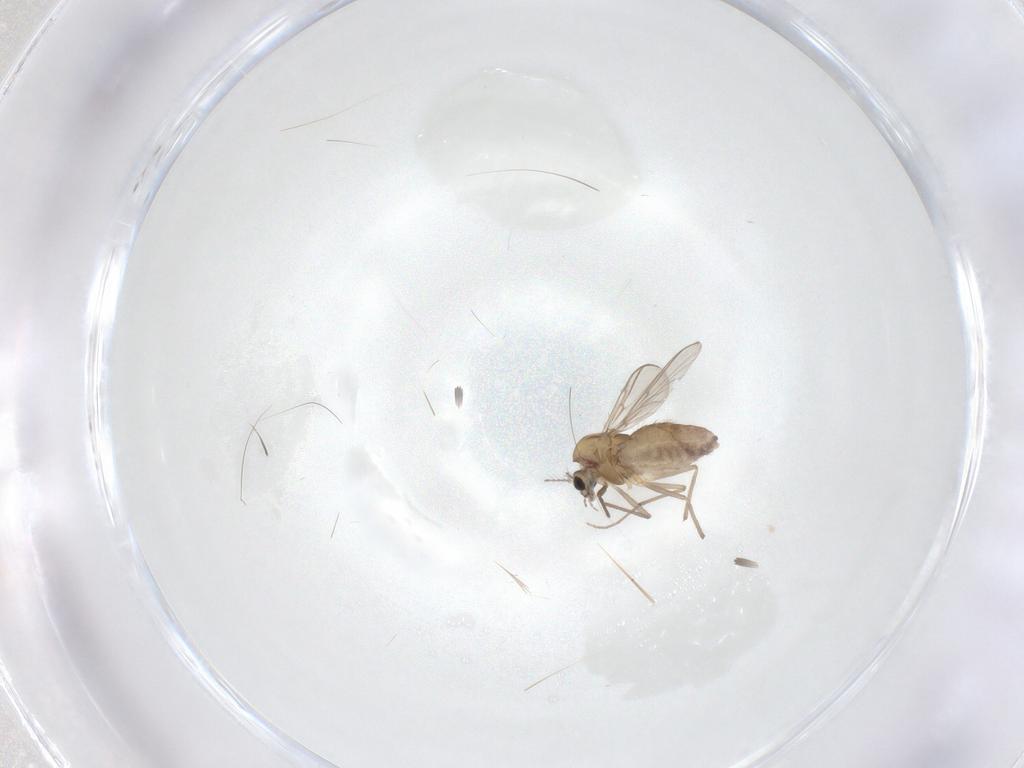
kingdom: Animalia
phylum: Arthropoda
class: Insecta
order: Diptera
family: Chironomidae
